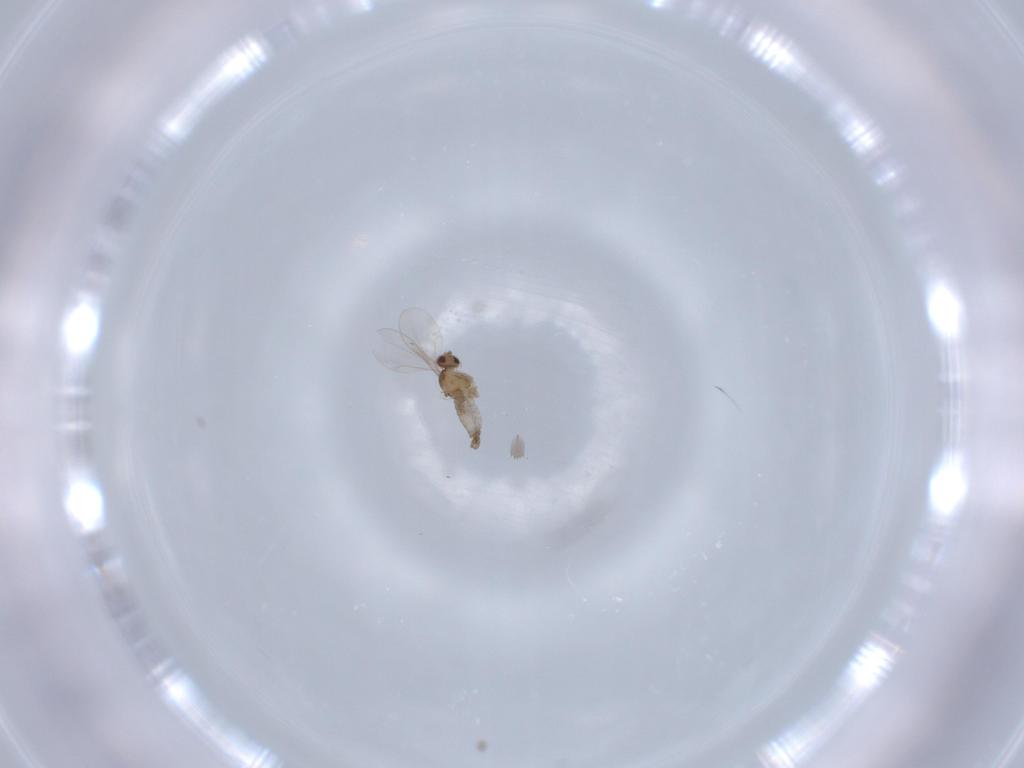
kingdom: Animalia
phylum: Arthropoda
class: Insecta
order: Diptera
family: Cecidomyiidae
